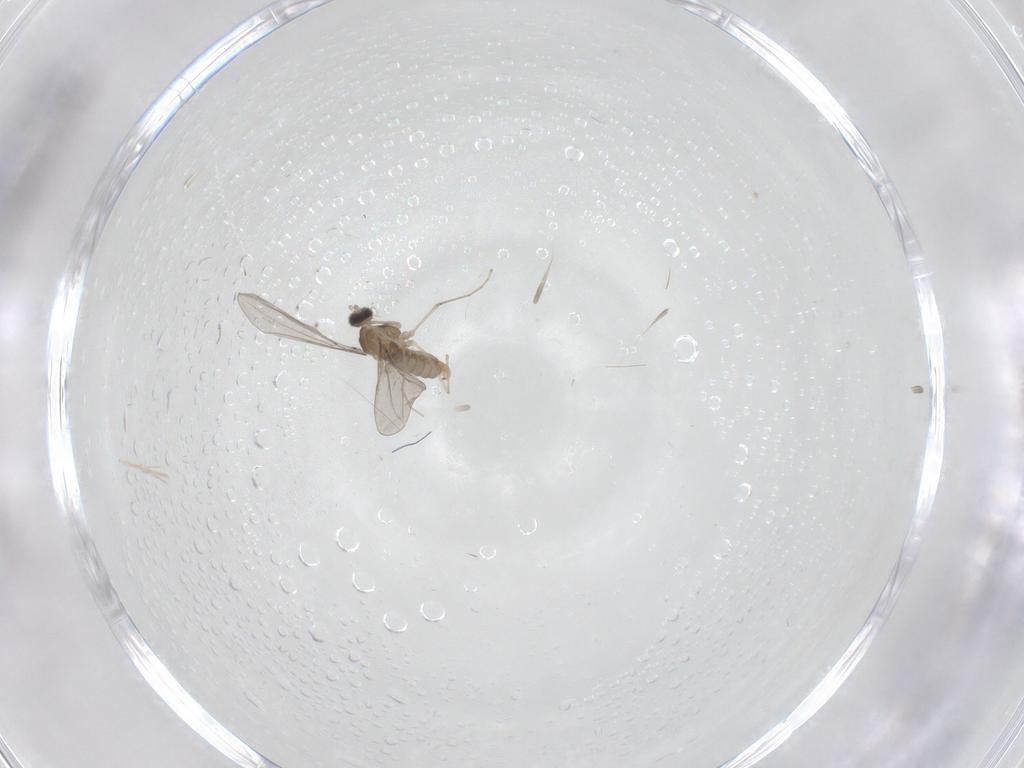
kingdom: Animalia
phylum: Arthropoda
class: Insecta
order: Diptera
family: Cecidomyiidae
